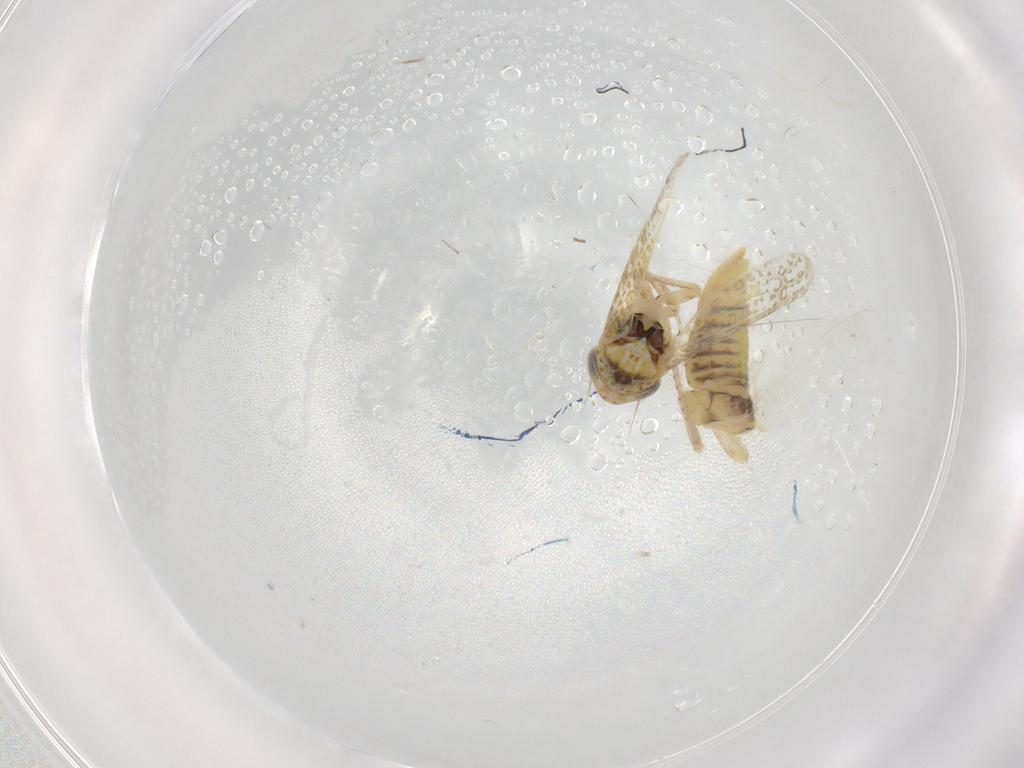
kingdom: Animalia
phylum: Arthropoda
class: Insecta
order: Hemiptera
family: Cicadellidae
